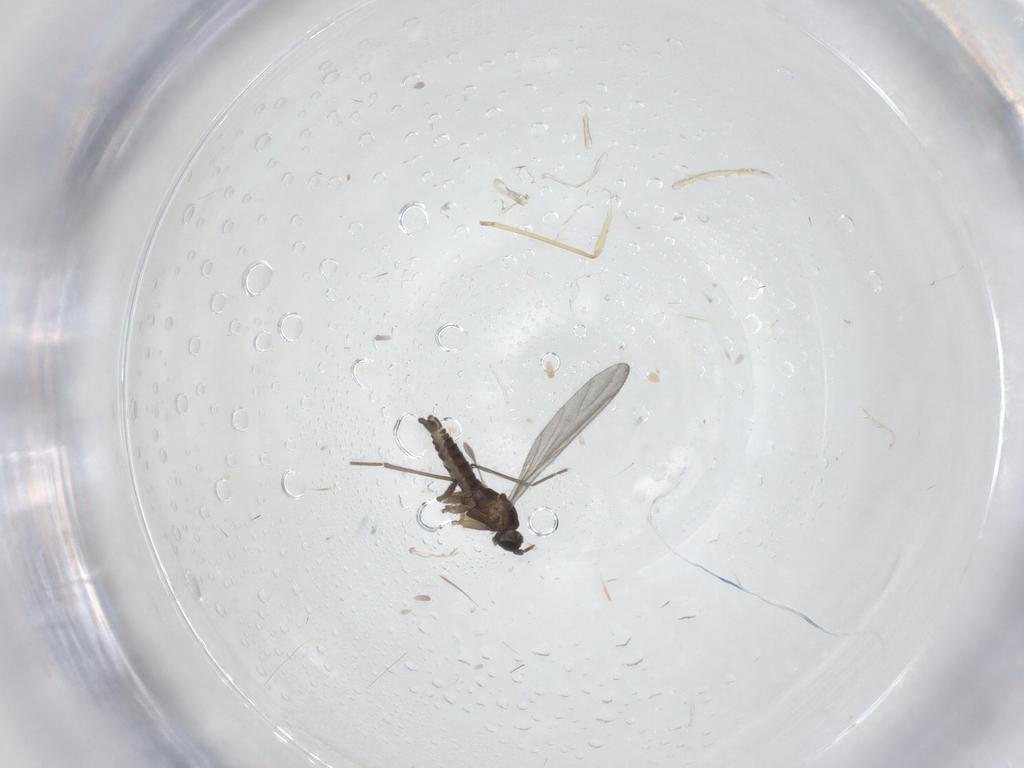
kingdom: Animalia
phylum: Arthropoda
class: Insecta
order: Diptera
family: Sciaridae
